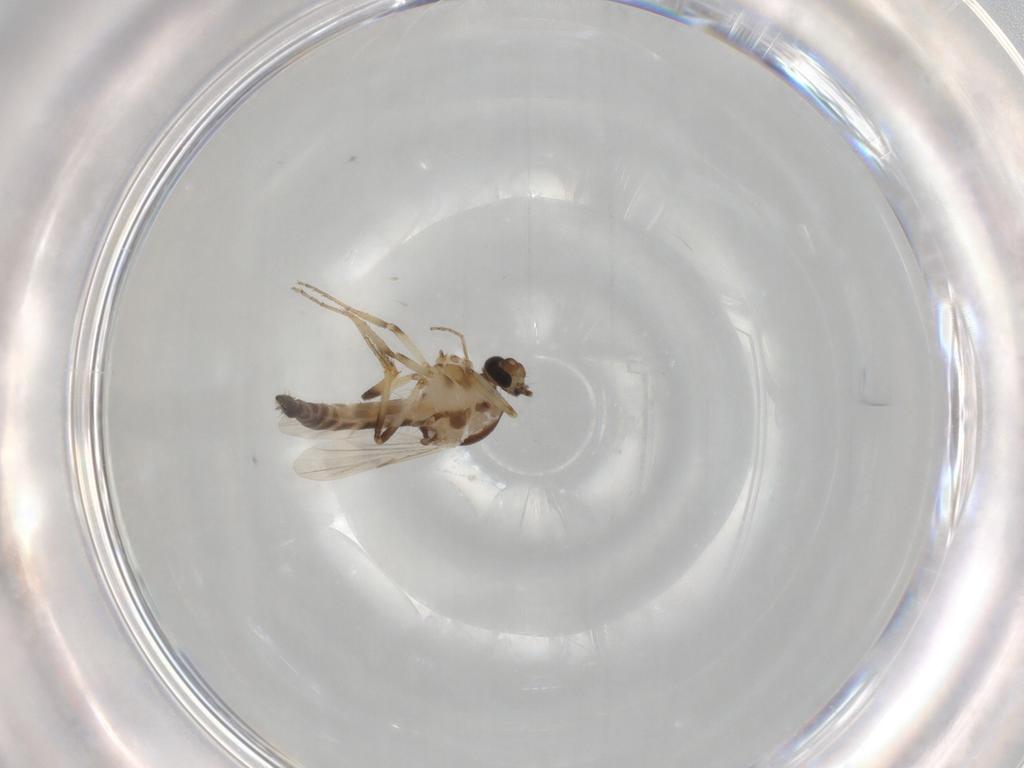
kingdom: Animalia
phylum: Arthropoda
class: Insecta
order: Diptera
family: Ceratopogonidae
